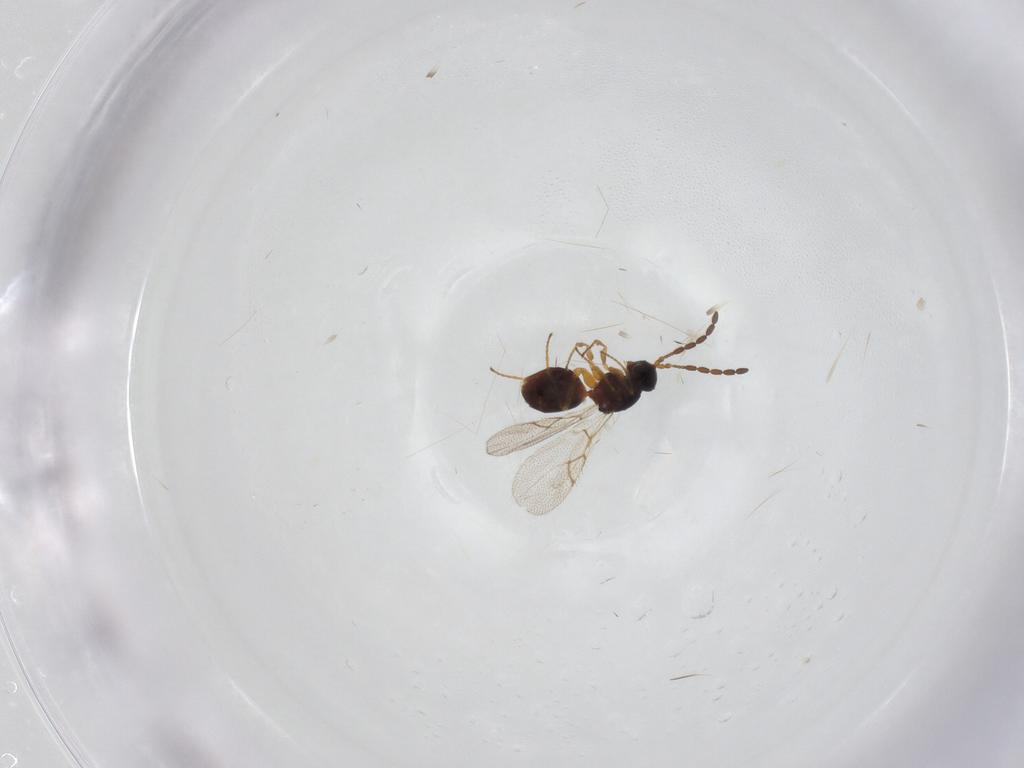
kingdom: Animalia
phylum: Arthropoda
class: Insecta
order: Hymenoptera
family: Figitidae
